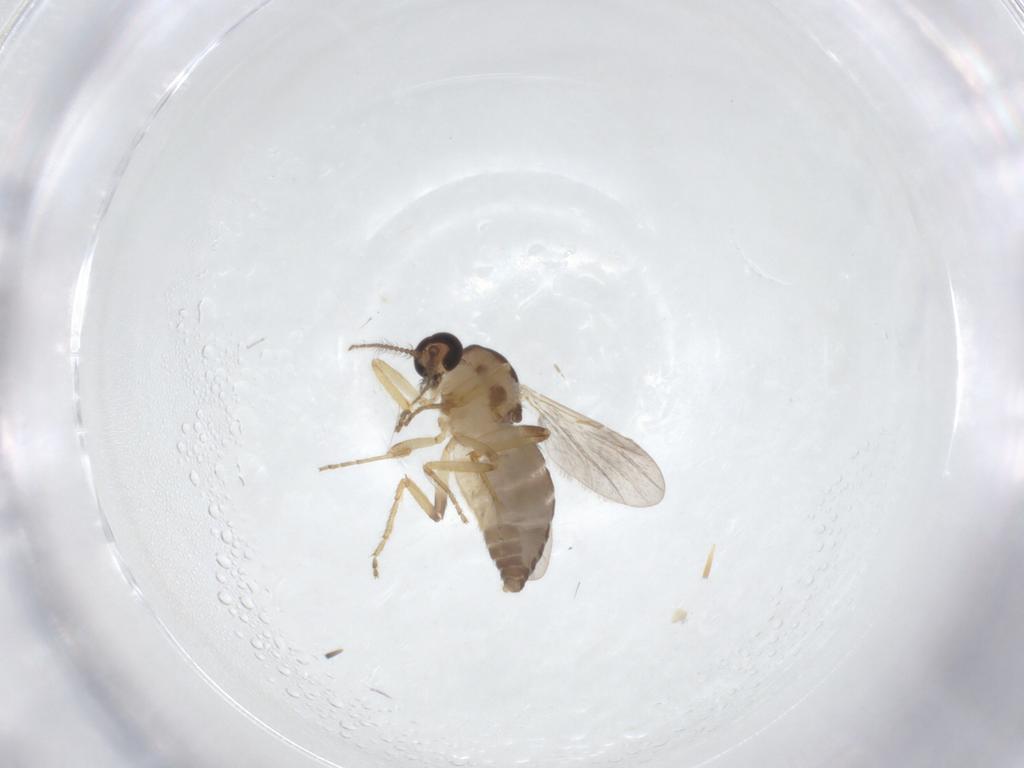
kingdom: Animalia
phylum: Arthropoda
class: Insecta
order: Diptera
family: Ceratopogonidae
